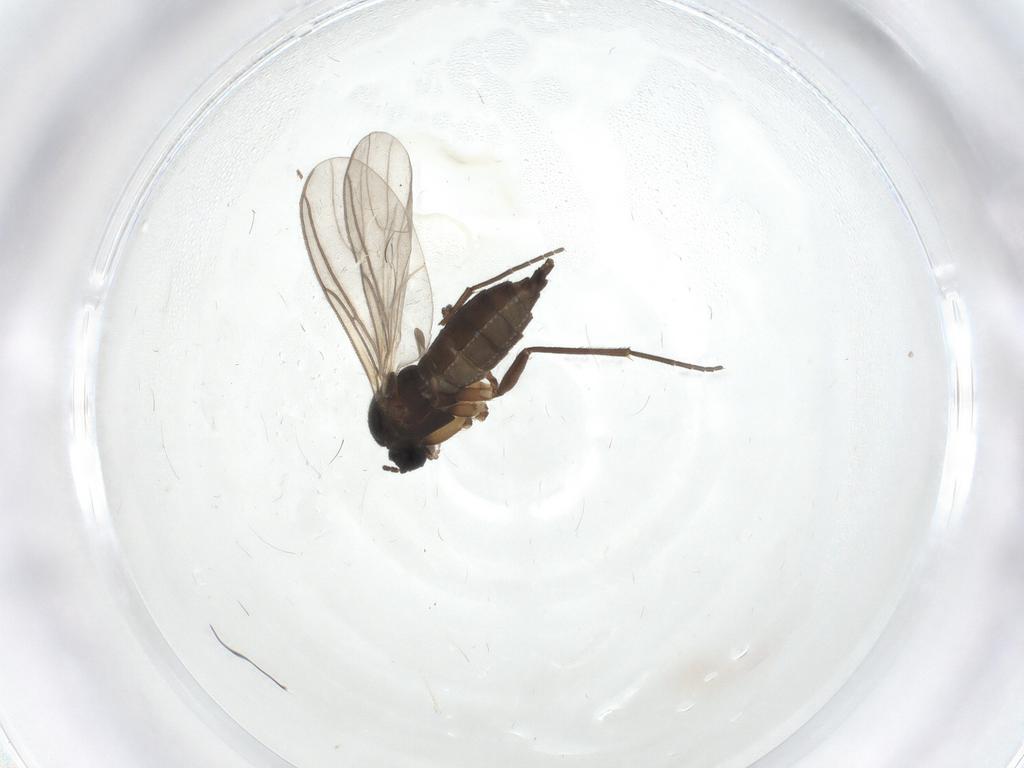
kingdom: Animalia
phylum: Arthropoda
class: Insecta
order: Diptera
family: Sciaridae
